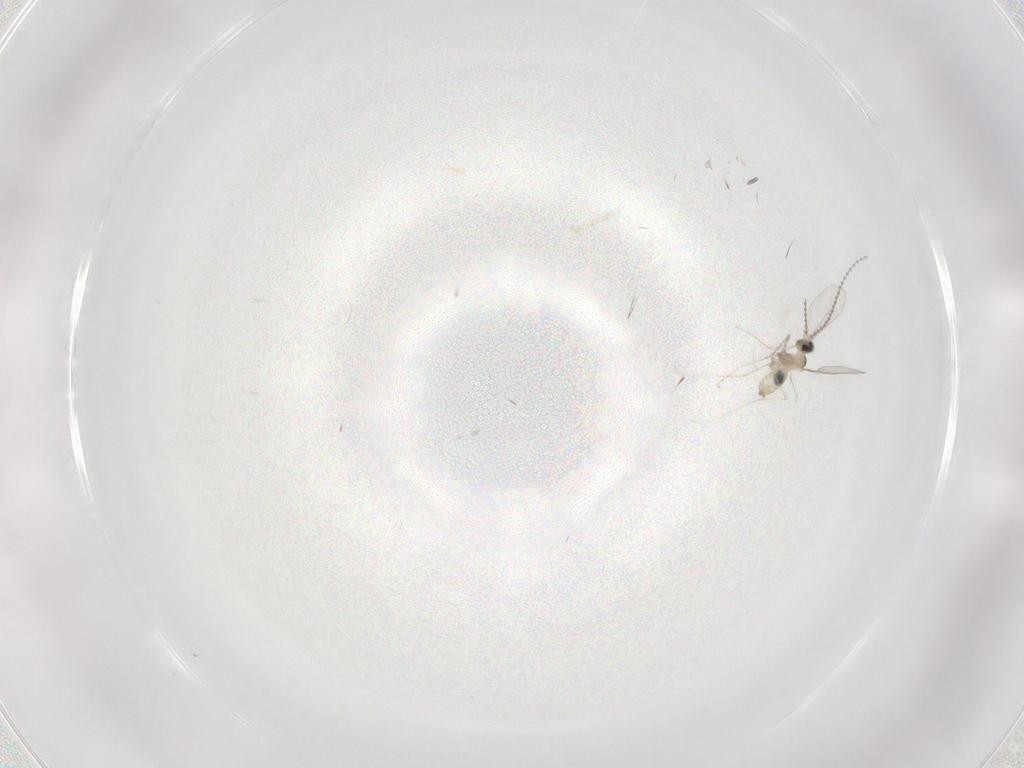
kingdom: Animalia
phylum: Arthropoda
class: Insecta
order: Diptera
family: Cecidomyiidae
